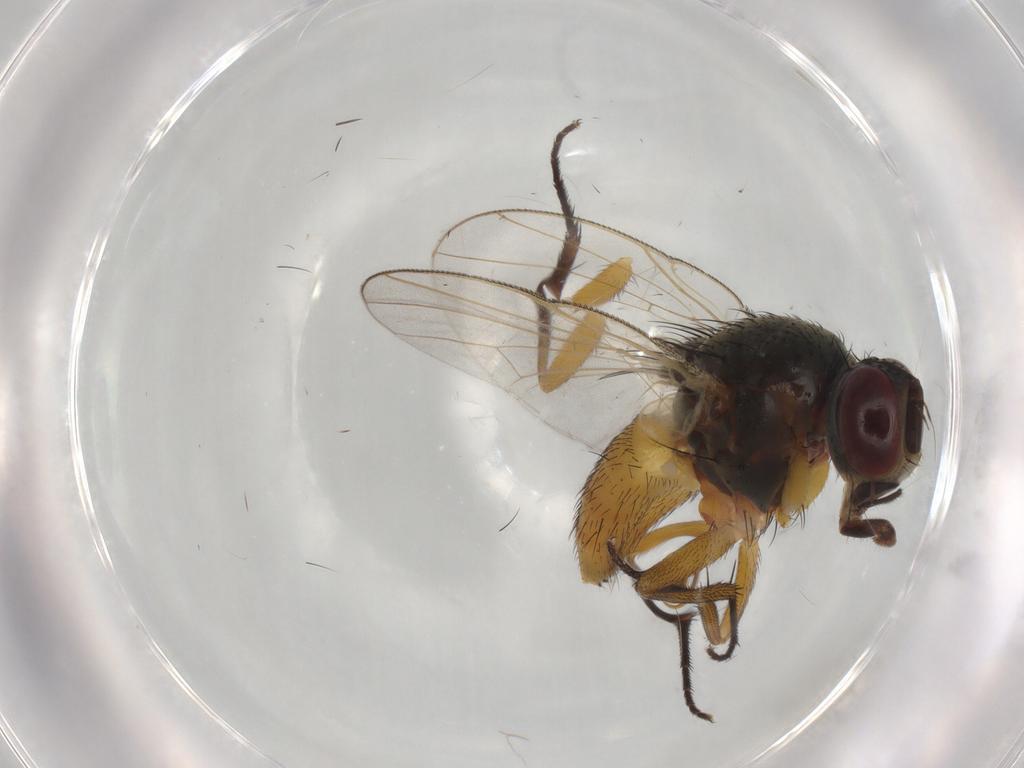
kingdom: Animalia
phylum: Arthropoda
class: Insecta
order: Diptera
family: Muscidae
